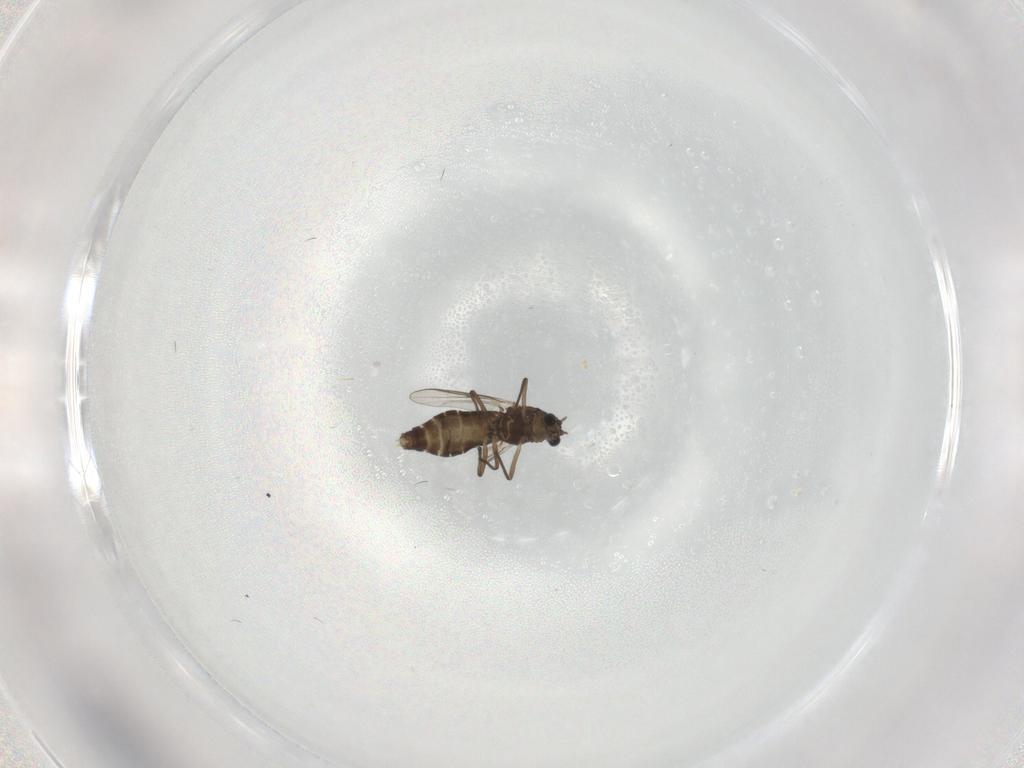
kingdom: Animalia
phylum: Arthropoda
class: Insecta
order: Diptera
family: Chironomidae
